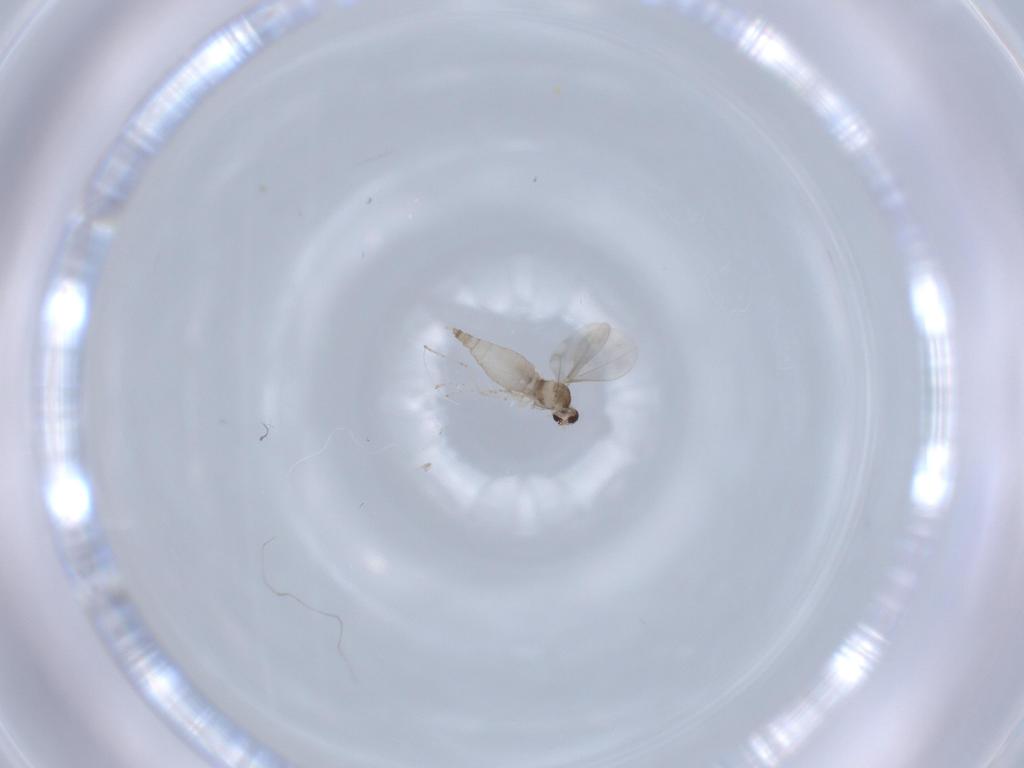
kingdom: Animalia
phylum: Arthropoda
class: Insecta
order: Diptera
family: Cecidomyiidae
